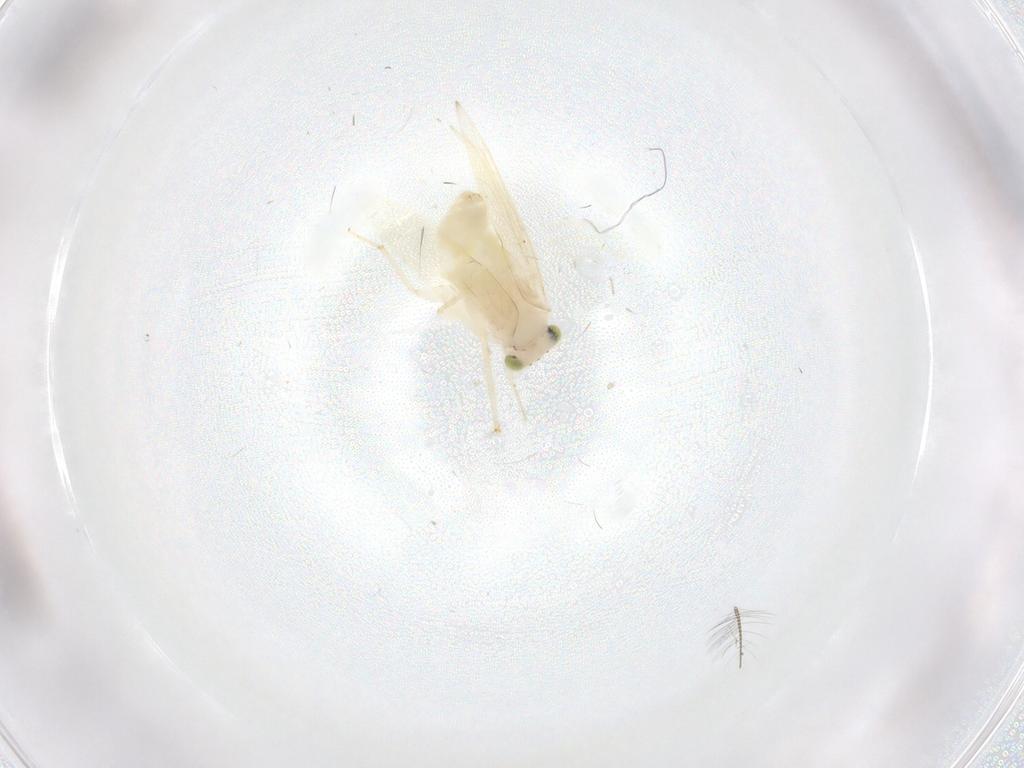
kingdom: Animalia
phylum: Arthropoda
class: Insecta
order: Psocodea
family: Lepidopsocidae
